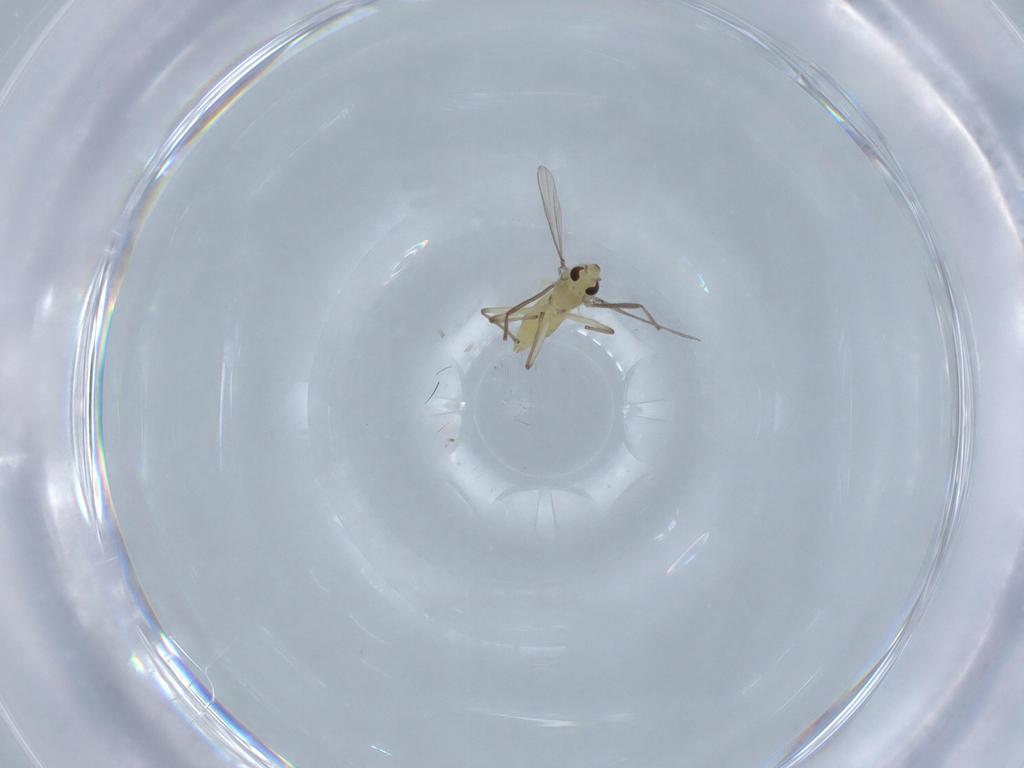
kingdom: Animalia
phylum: Arthropoda
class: Insecta
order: Diptera
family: Chironomidae
